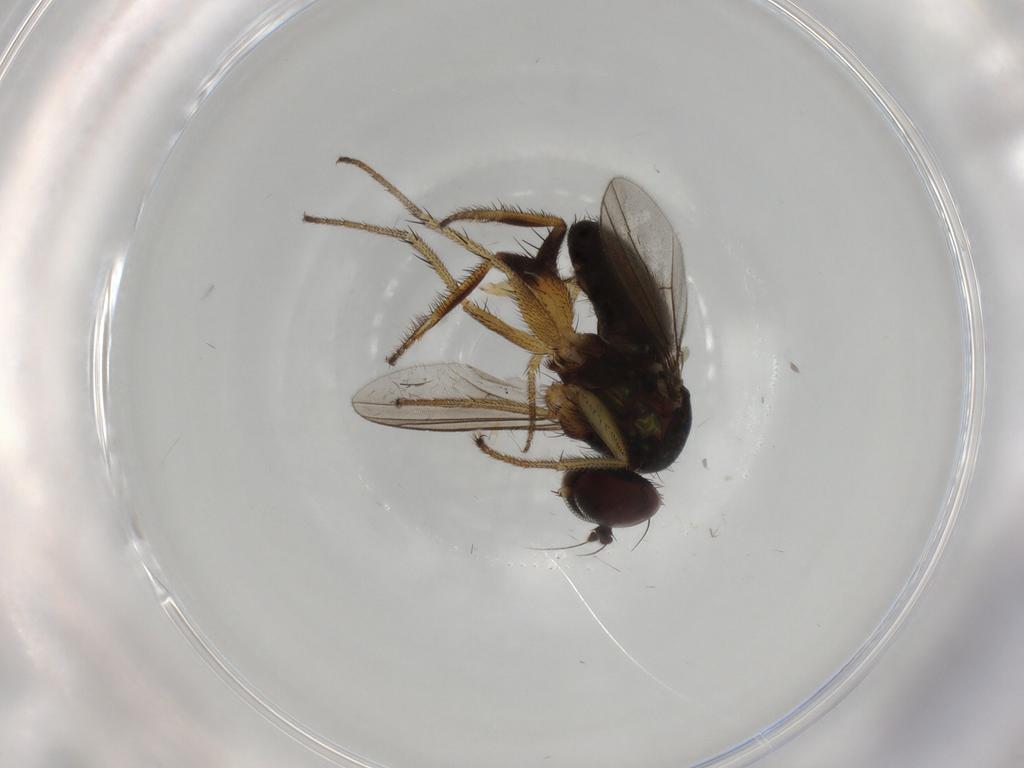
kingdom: Animalia
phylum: Arthropoda
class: Insecta
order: Diptera
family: Dolichopodidae
